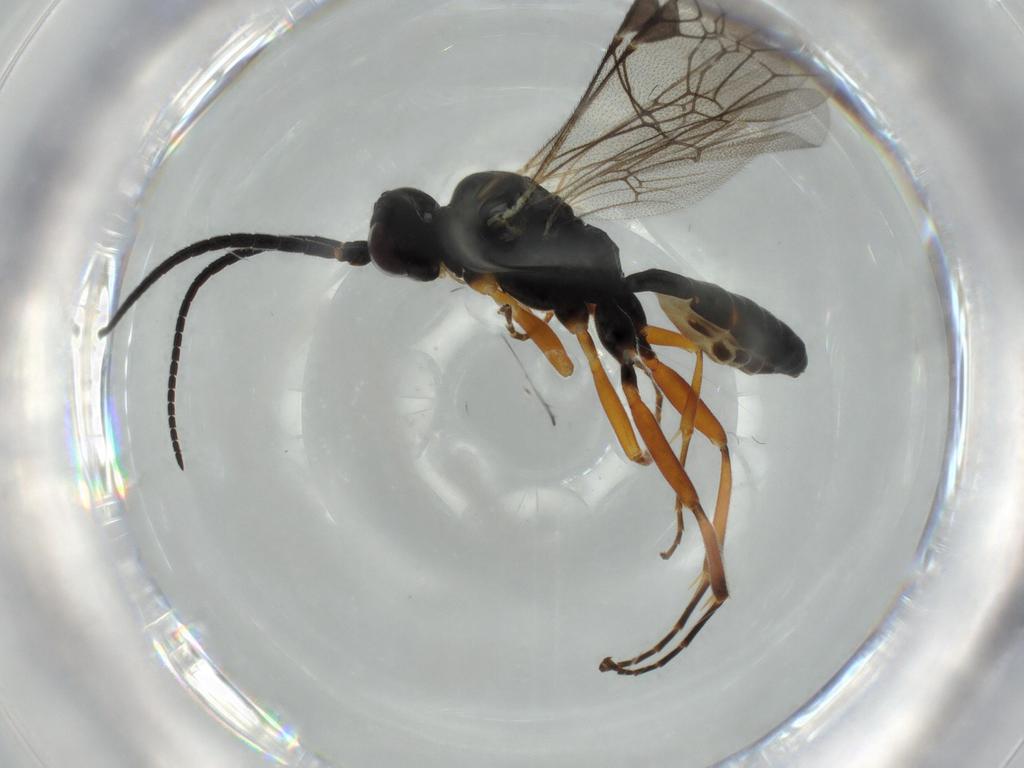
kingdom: Animalia
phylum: Arthropoda
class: Insecta
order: Hymenoptera
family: Ichneumonidae
